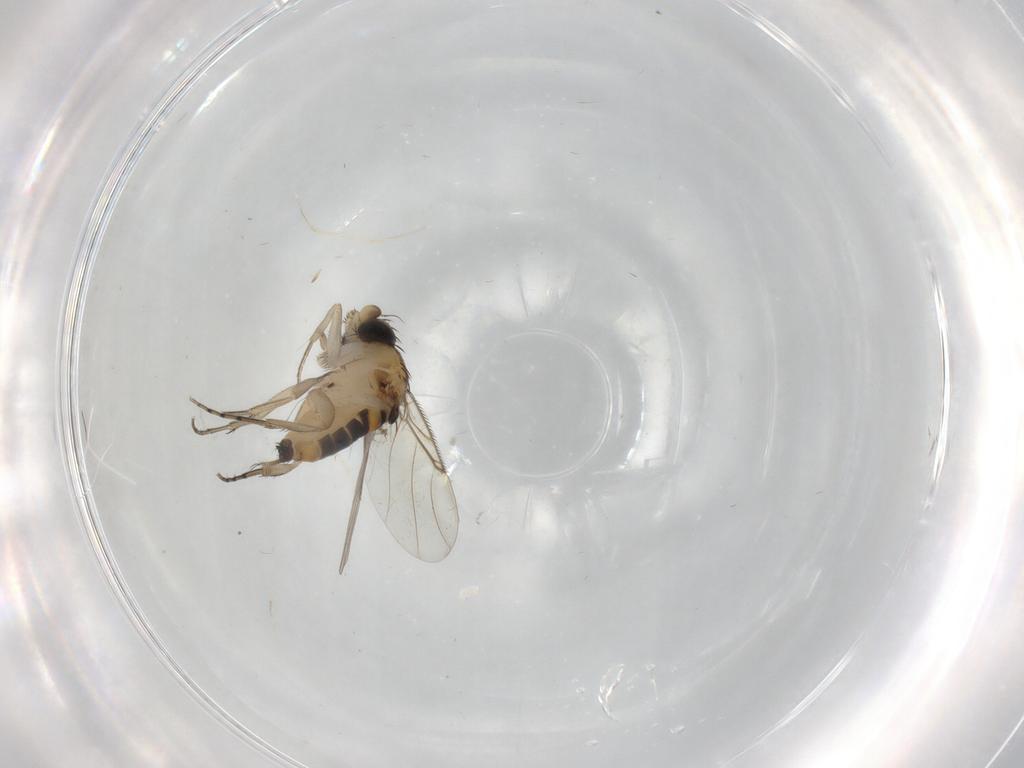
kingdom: Animalia
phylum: Arthropoda
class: Insecta
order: Diptera
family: Phoridae
